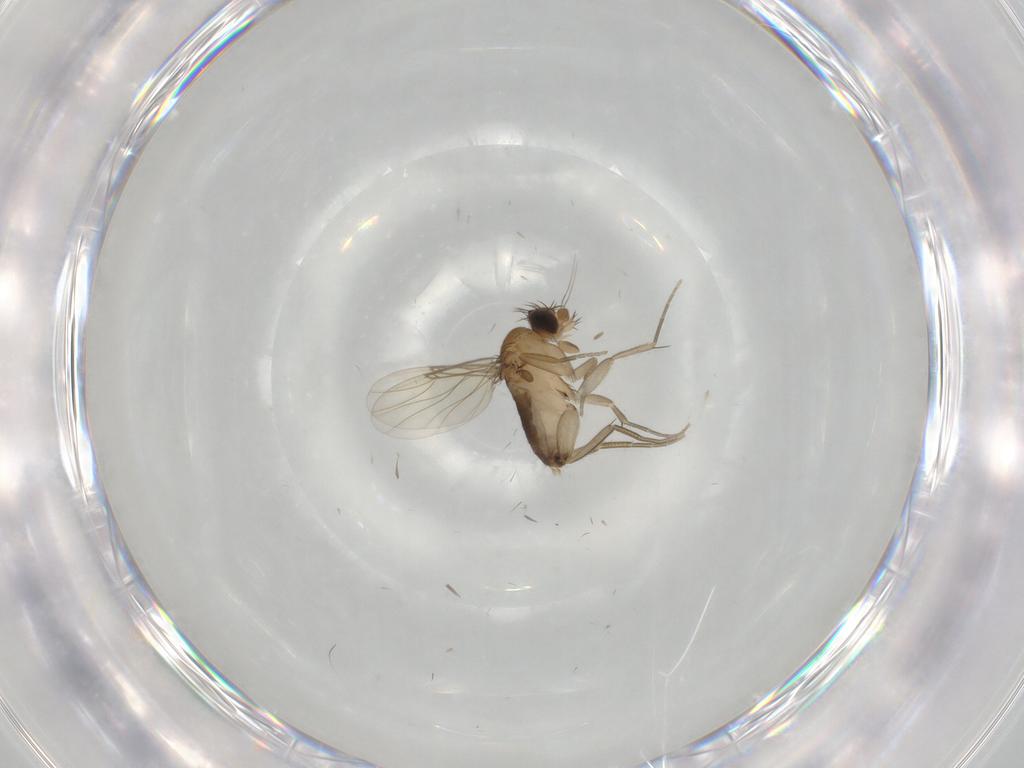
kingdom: Animalia
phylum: Arthropoda
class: Insecta
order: Diptera
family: Phoridae
